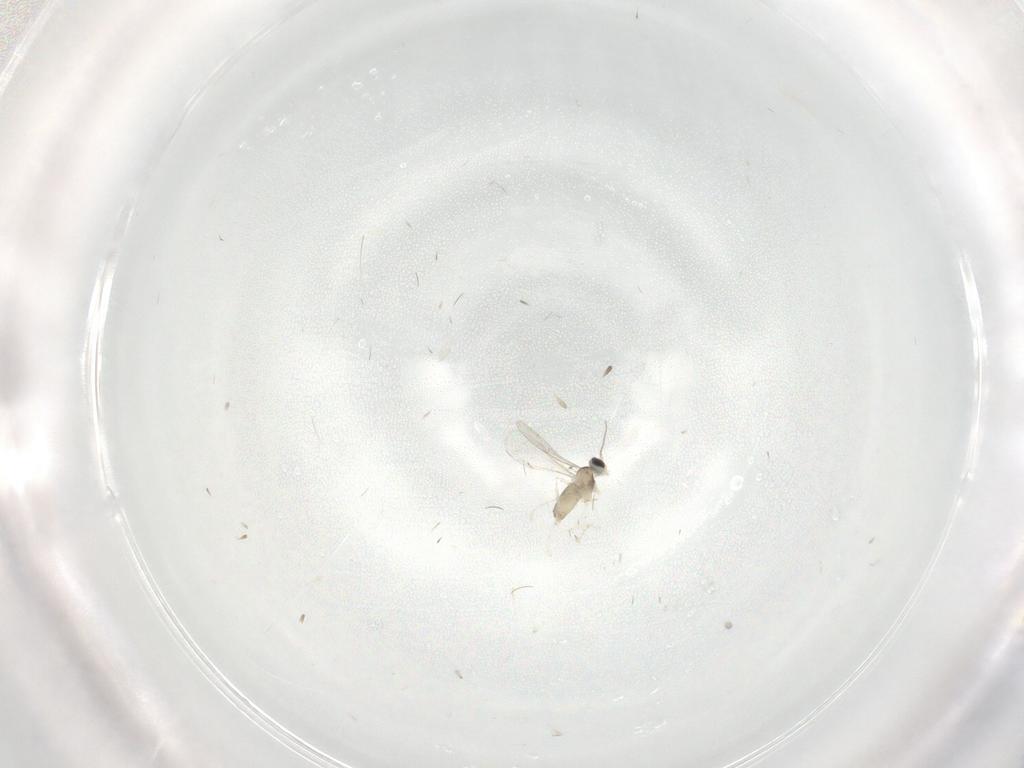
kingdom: Animalia
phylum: Arthropoda
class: Insecta
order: Diptera
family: Cecidomyiidae
